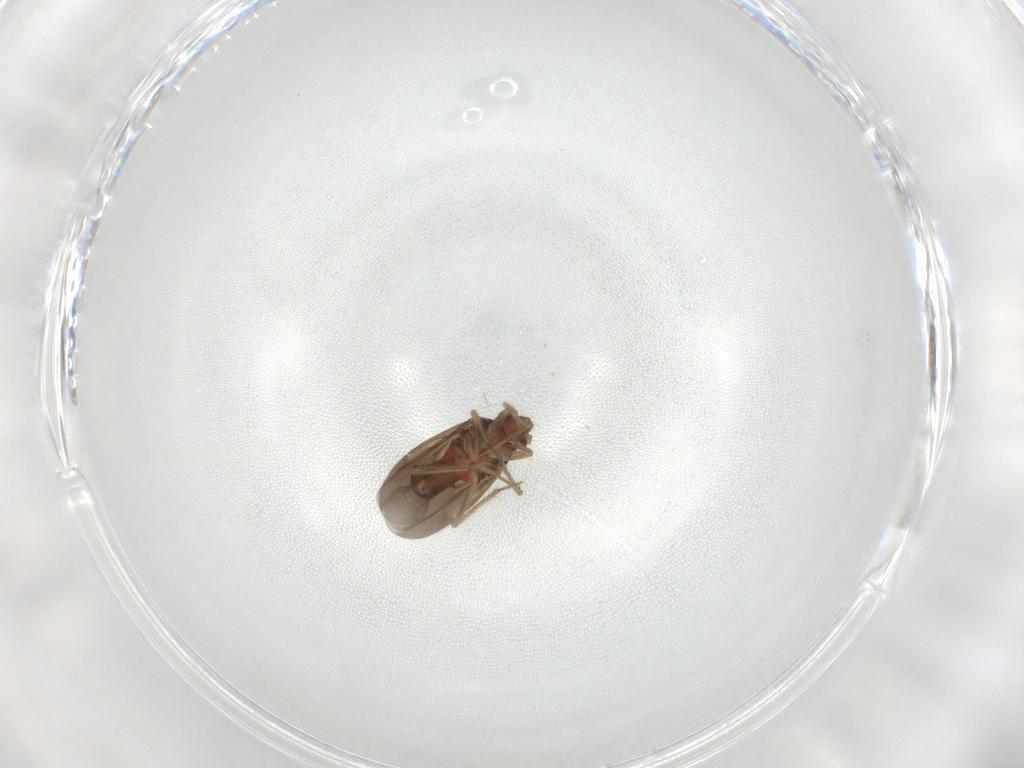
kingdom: Animalia
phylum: Arthropoda
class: Insecta
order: Hemiptera
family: Ceratocombidae
